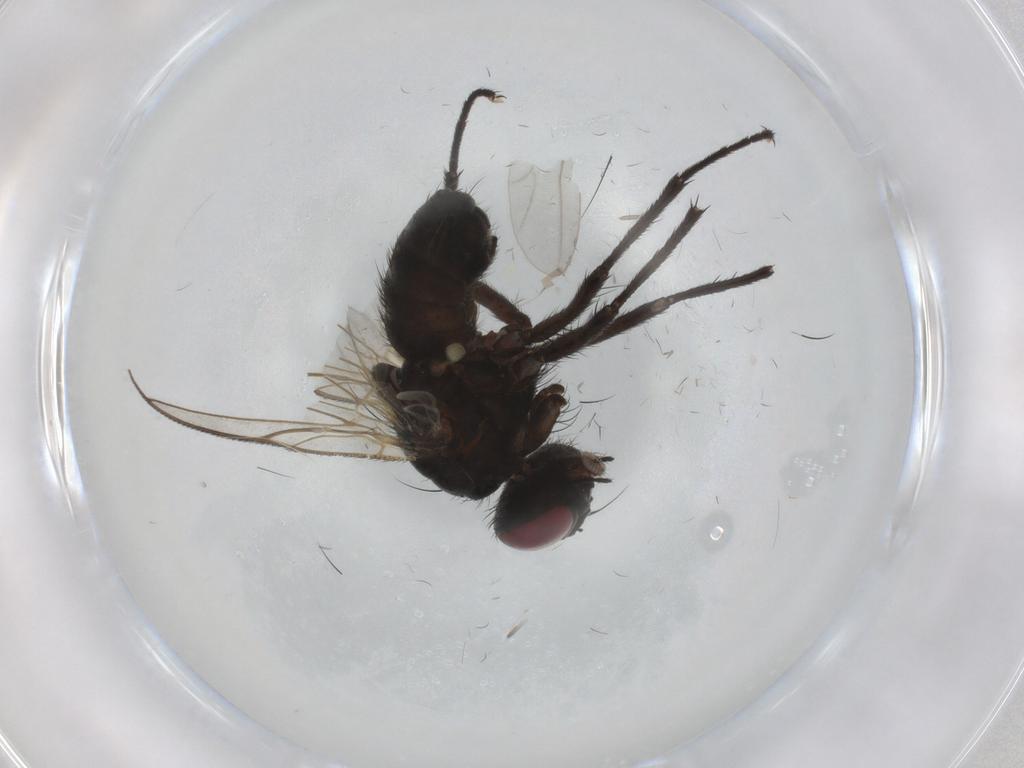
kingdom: Animalia
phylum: Arthropoda
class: Insecta
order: Diptera
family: Muscidae
